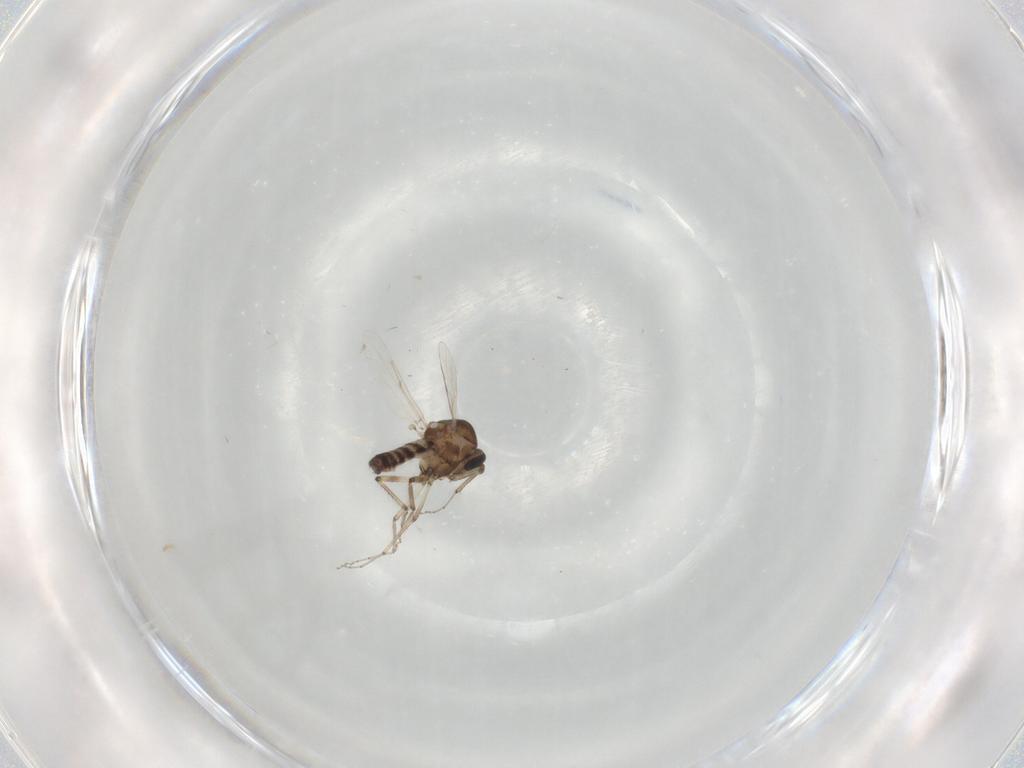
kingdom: Animalia
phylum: Arthropoda
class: Insecta
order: Diptera
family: Ceratopogonidae
